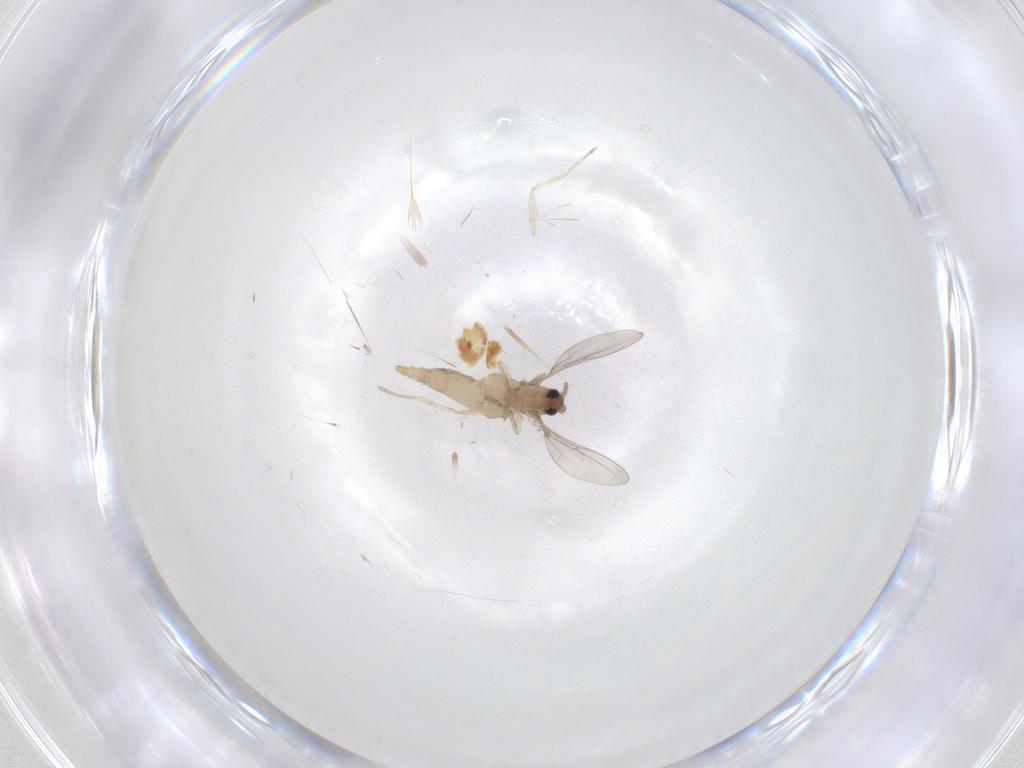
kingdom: Animalia
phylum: Arthropoda
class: Insecta
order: Diptera
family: Cecidomyiidae
